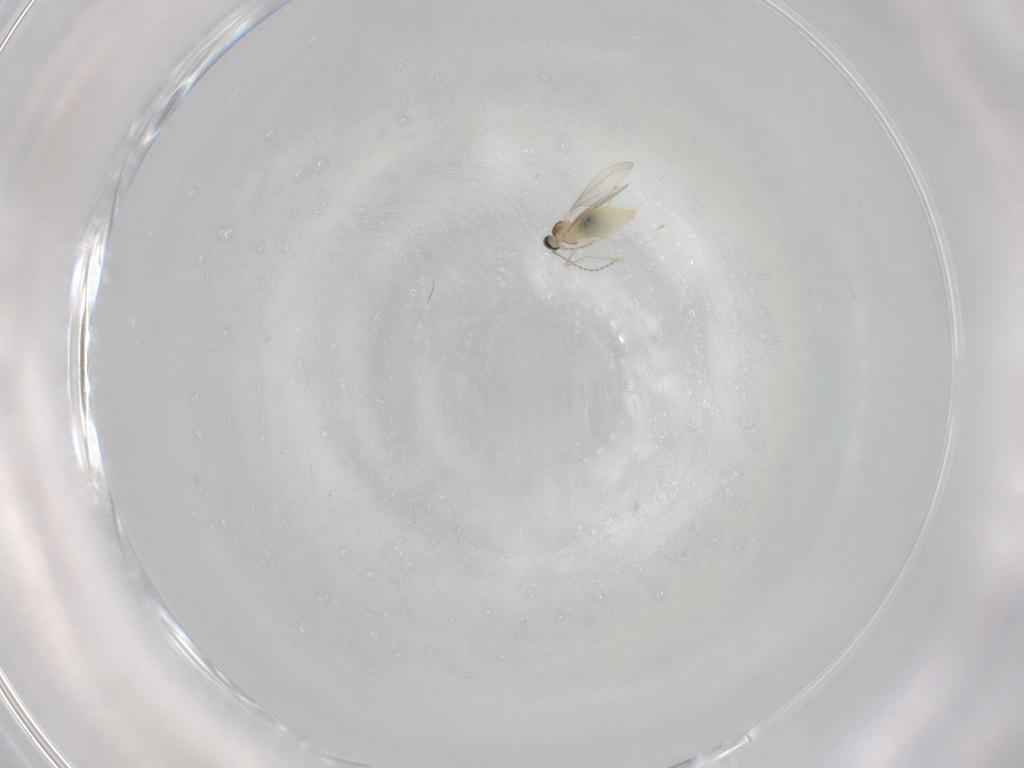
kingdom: Animalia
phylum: Arthropoda
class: Insecta
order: Diptera
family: Cecidomyiidae
